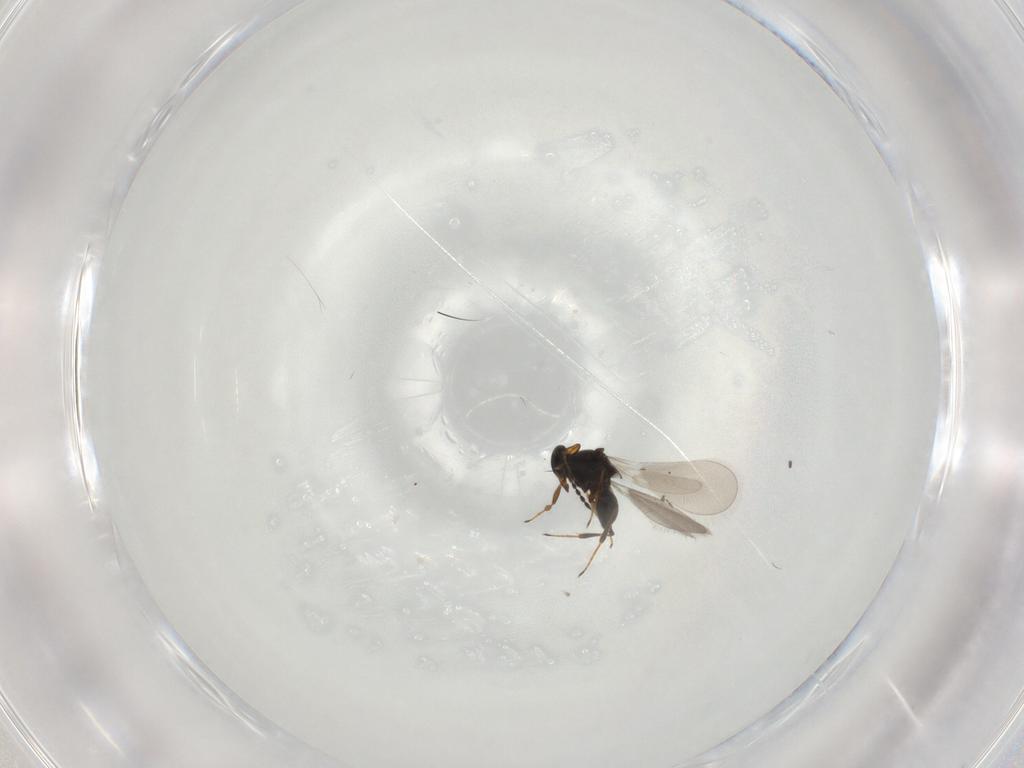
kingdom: Animalia
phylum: Arthropoda
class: Insecta
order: Hymenoptera
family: Platygastridae
